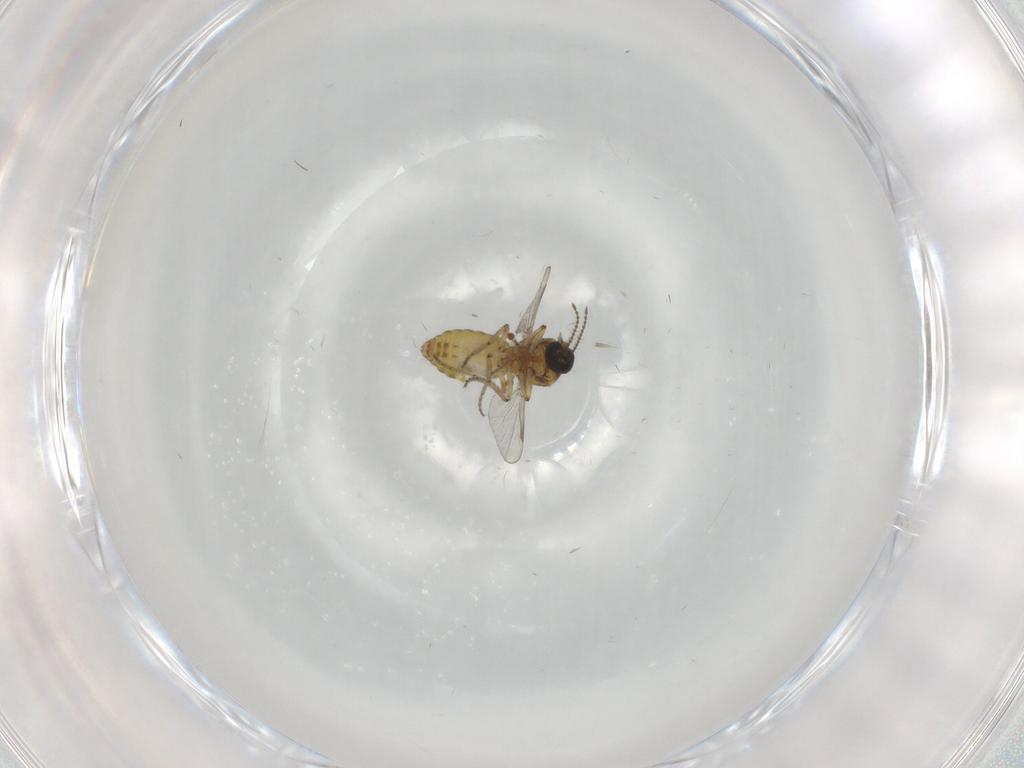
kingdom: Animalia
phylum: Arthropoda
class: Insecta
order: Diptera
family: Ceratopogonidae
